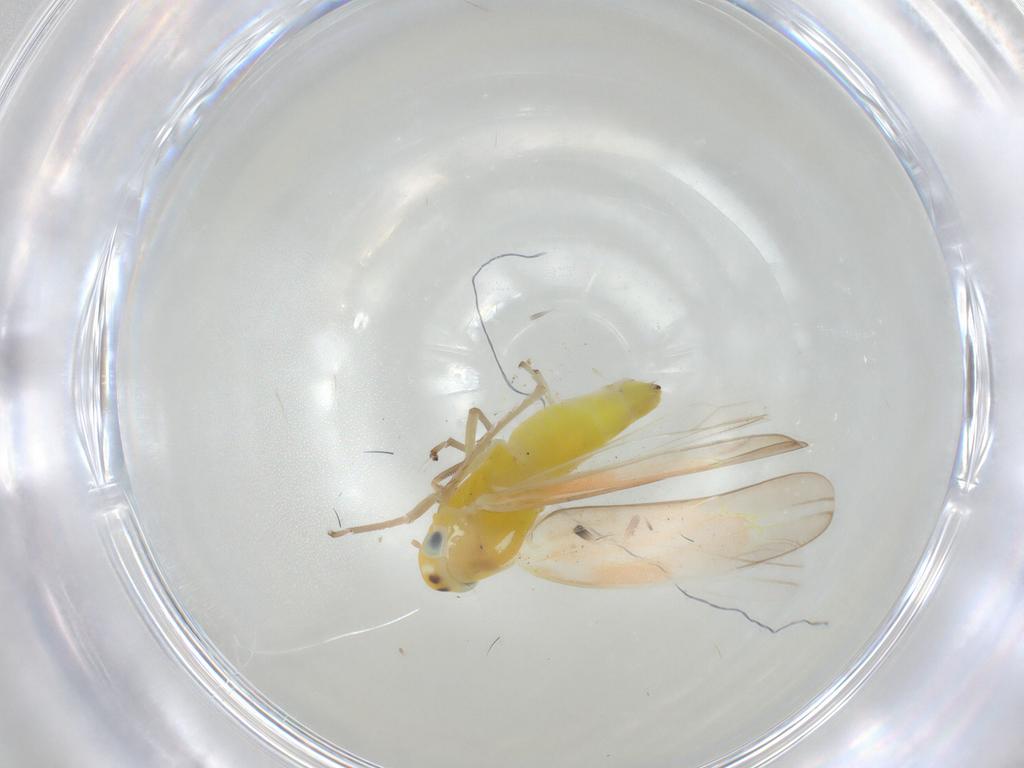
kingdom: Animalia
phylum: Arthropoda
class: Insecta
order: Hemiptera
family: Cicadellidae
